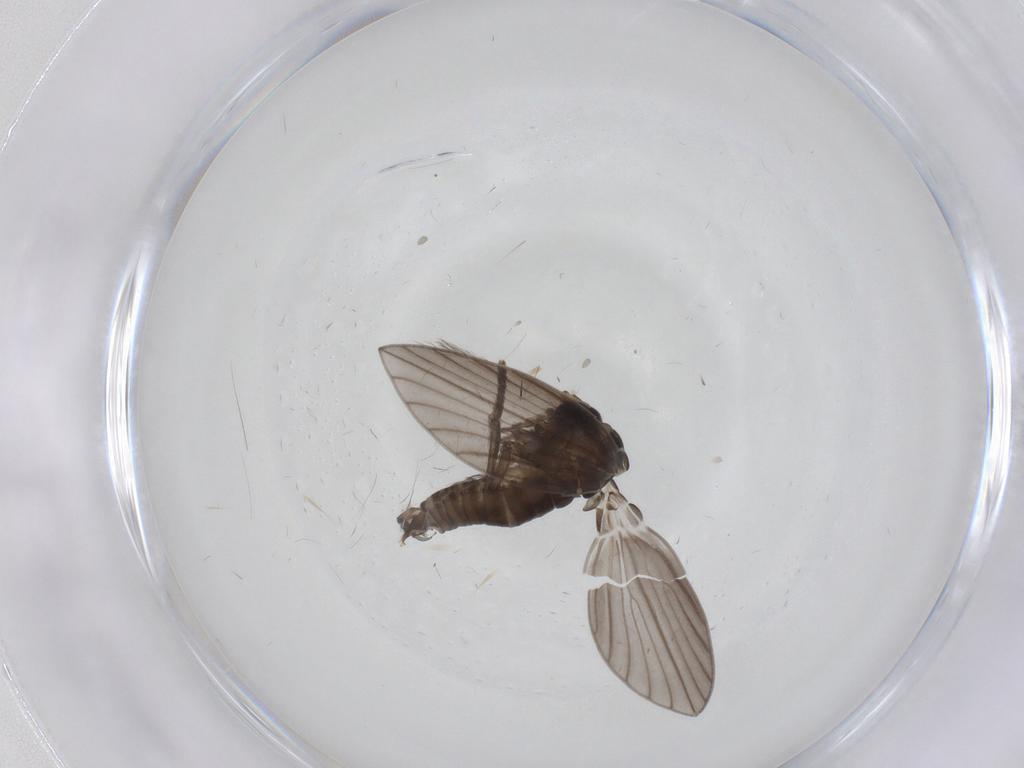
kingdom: Animalia
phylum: Arthropoda
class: Insecta
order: Diptera
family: Psychodidae
